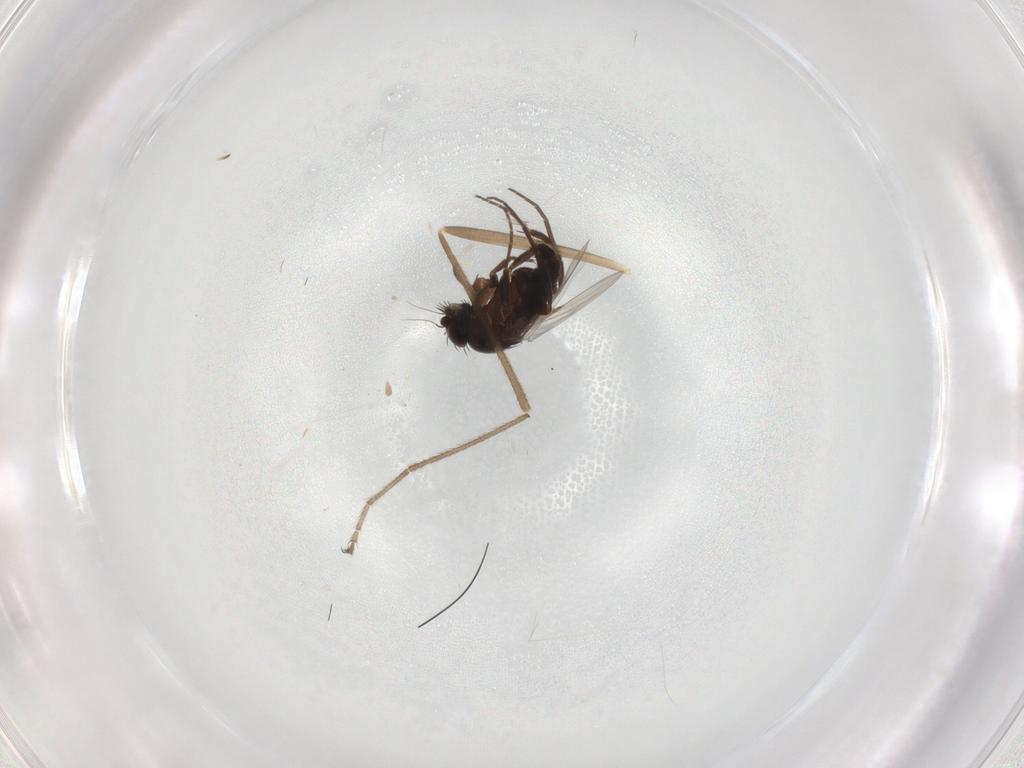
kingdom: Animalia
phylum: Arthropoda
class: Insecta
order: Diptera
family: Phoridae
